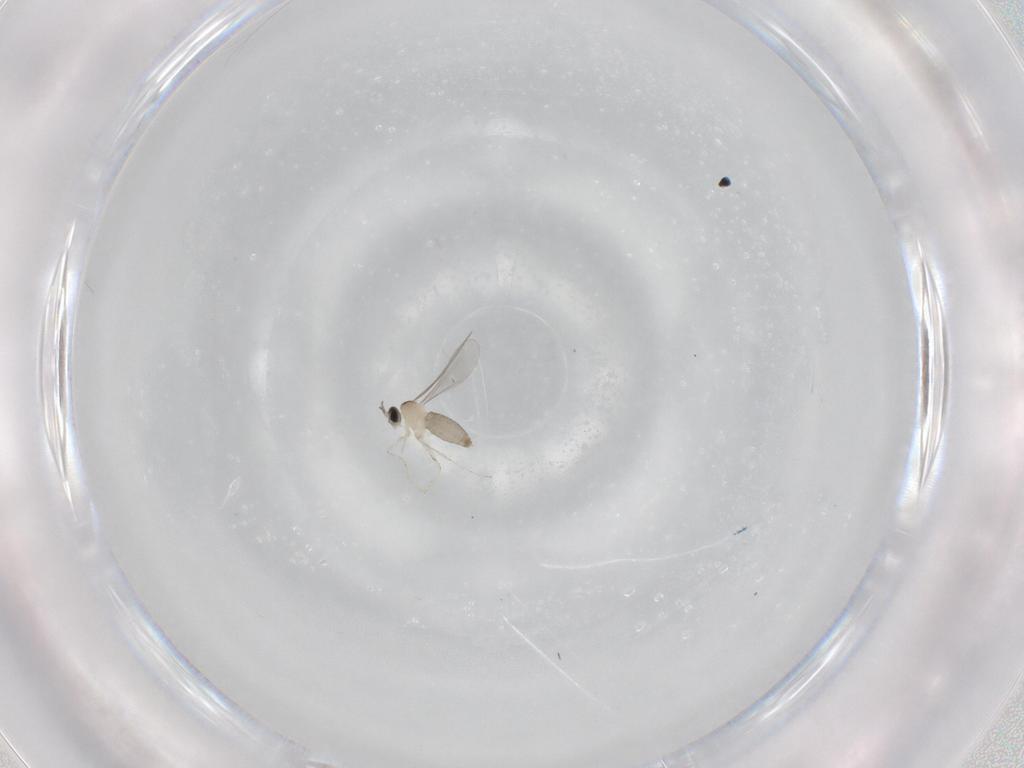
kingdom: Animalia
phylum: Arthropoda
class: Insecta
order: Diptera
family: Cecidomyiidae
